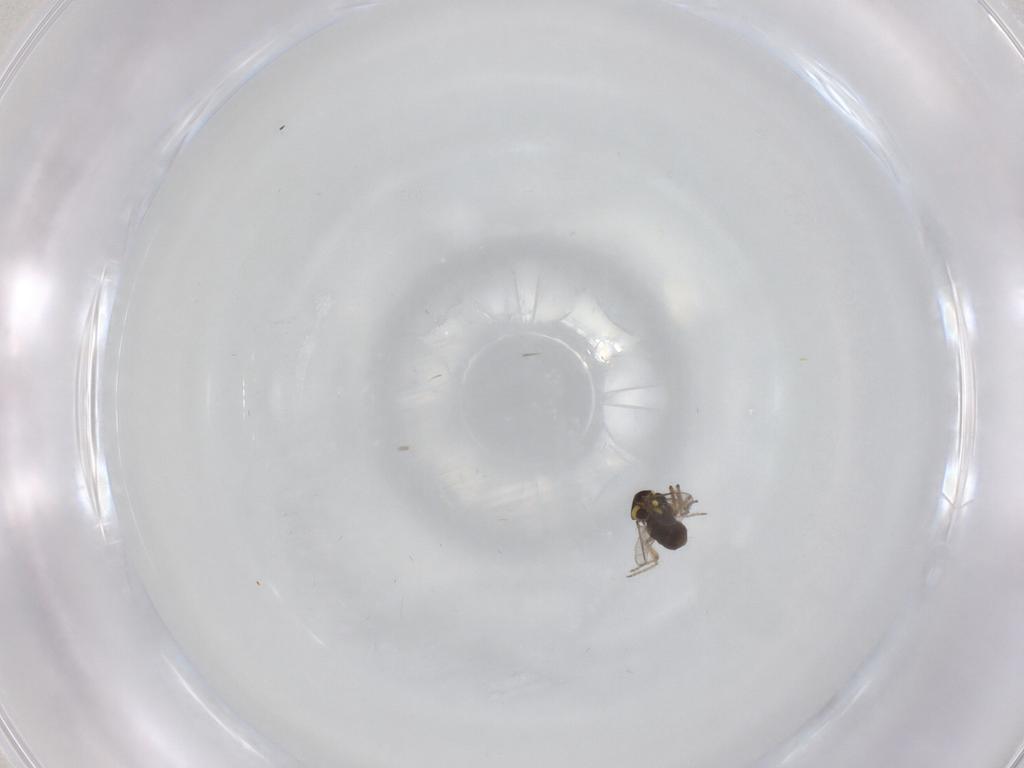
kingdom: Animalia
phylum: Arthropoda
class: Insecta
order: Diptera
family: Ceratopogonidae
